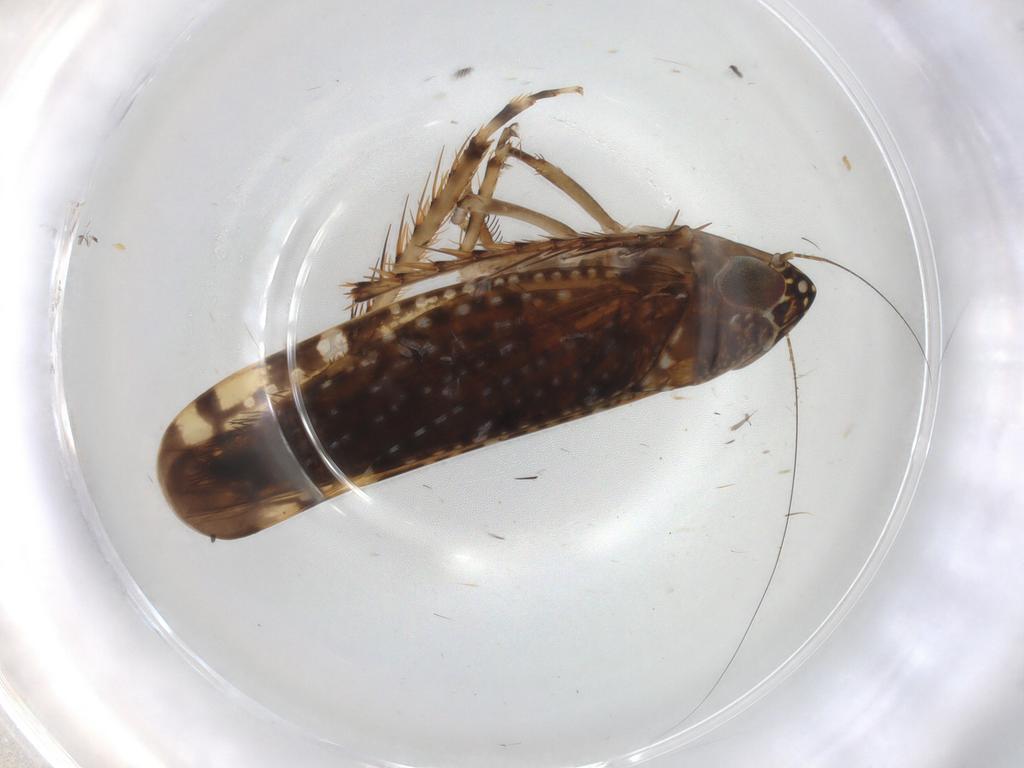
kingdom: Animalia
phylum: Arthropoda
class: Insecta
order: Hemiptera
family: Cicadellidae
